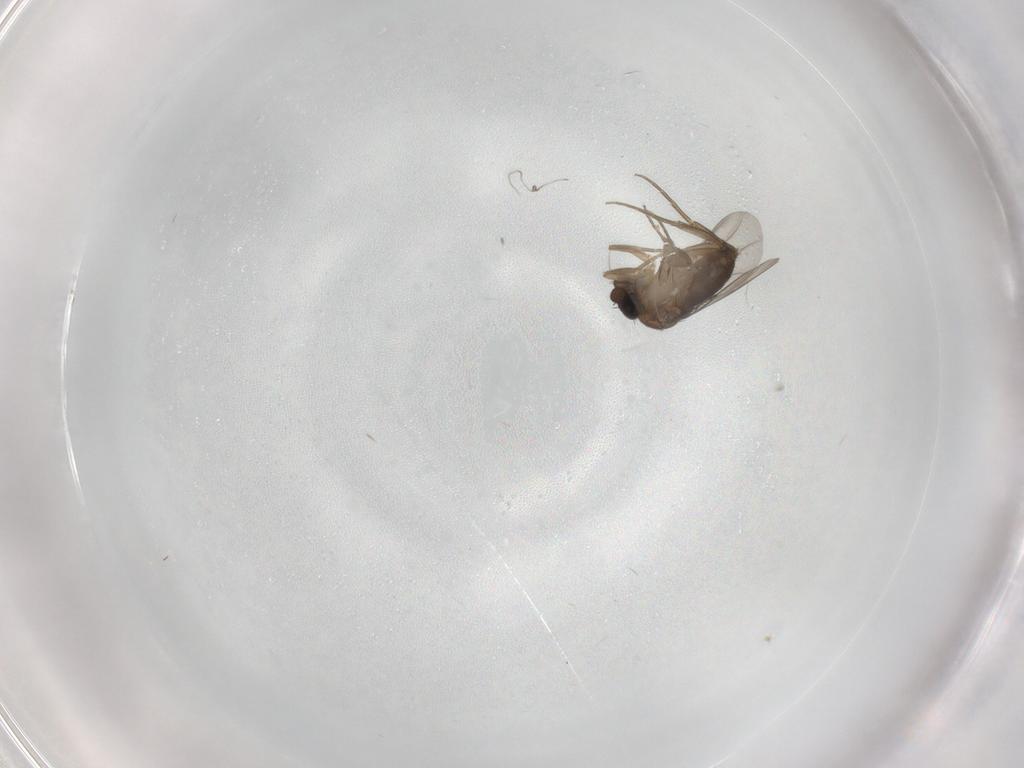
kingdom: Animalia
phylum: Arthropoda
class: Insecta
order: Diptera
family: Phoridae
